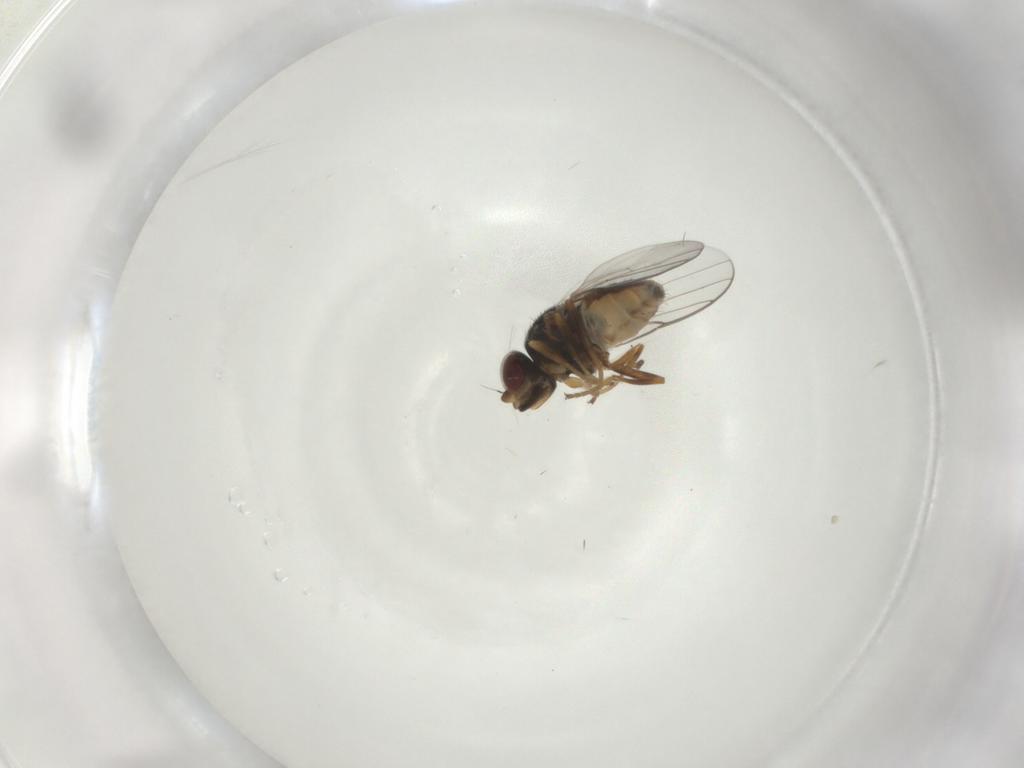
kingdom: Animalia
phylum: Arthropoda
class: Insecta
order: Diptera
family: Chloropidae
